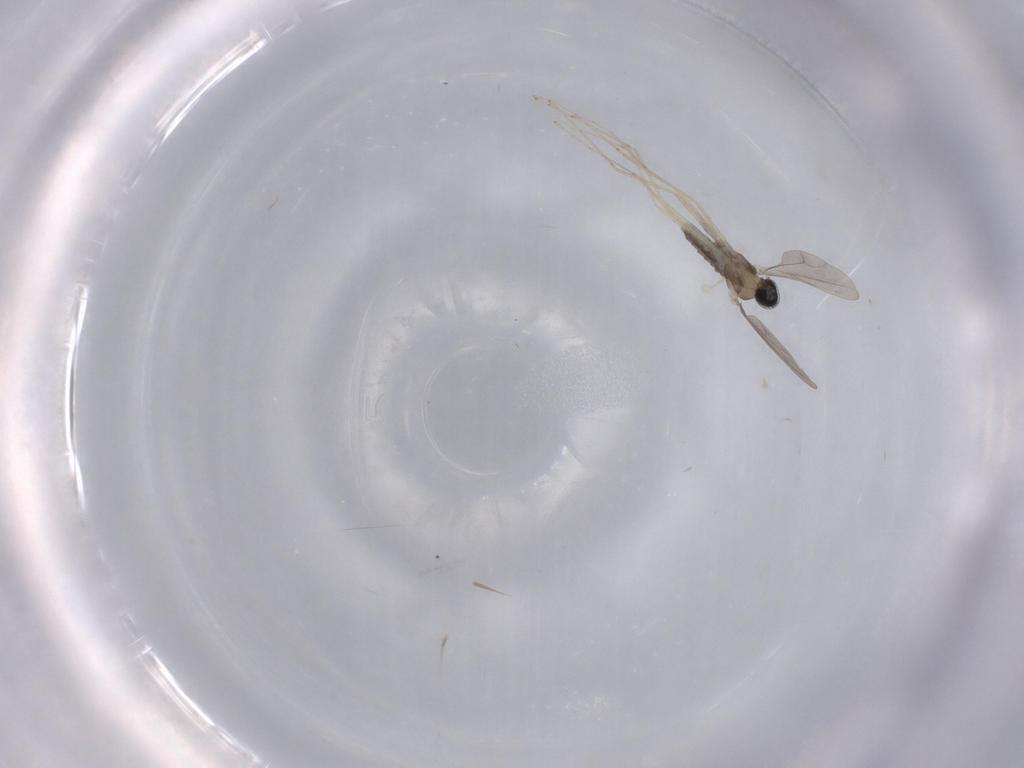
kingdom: Animalia
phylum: Arthropoda
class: Insecta
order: Diptera
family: Cecidomyiidae
